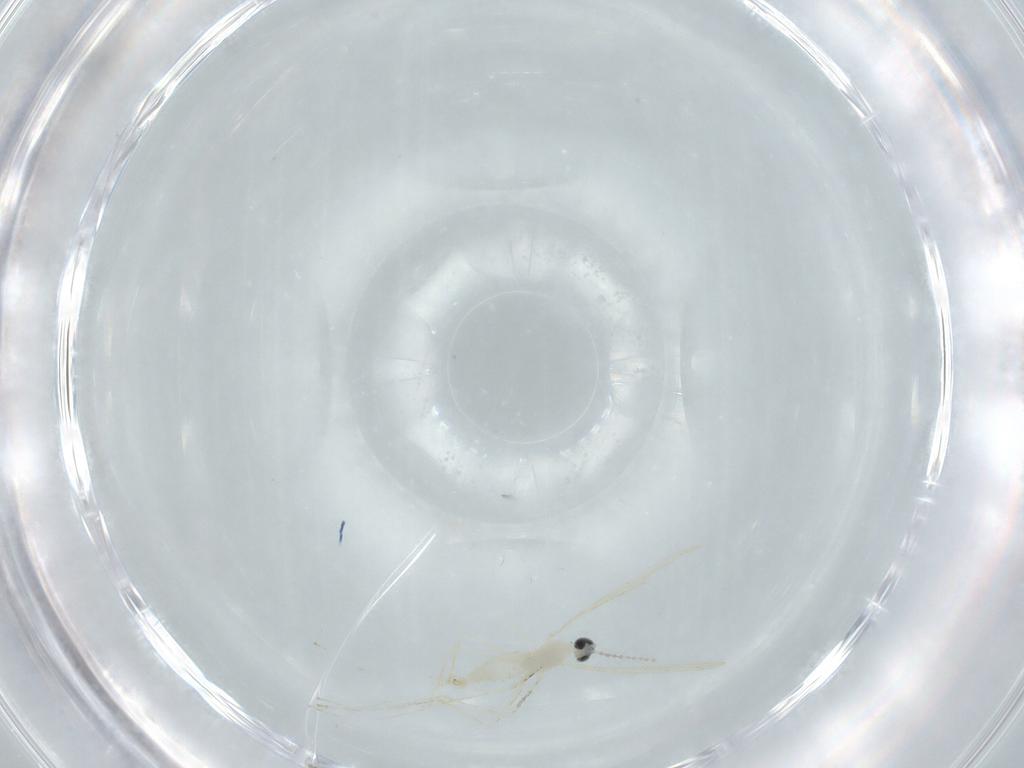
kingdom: Animalia
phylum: Arthropoda
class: Insecta
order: Diptera
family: Cecidomyiidae
